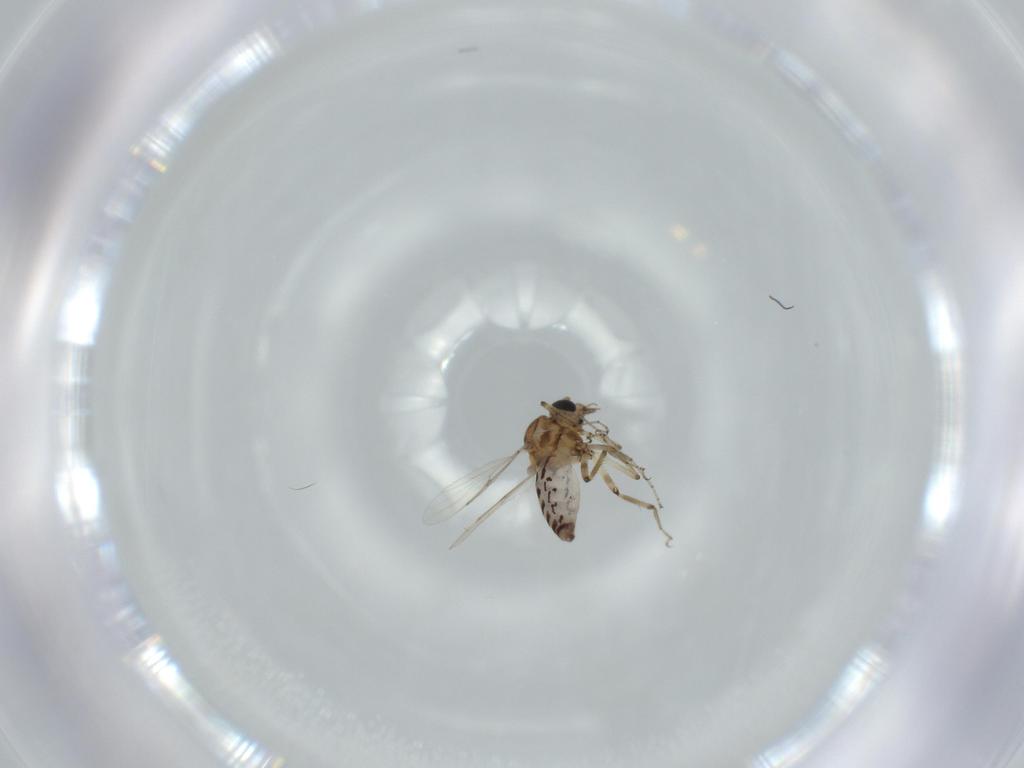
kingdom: Animalia
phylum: Arthropoda
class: Insecta
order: Diptera
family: Ceratopogonidae
